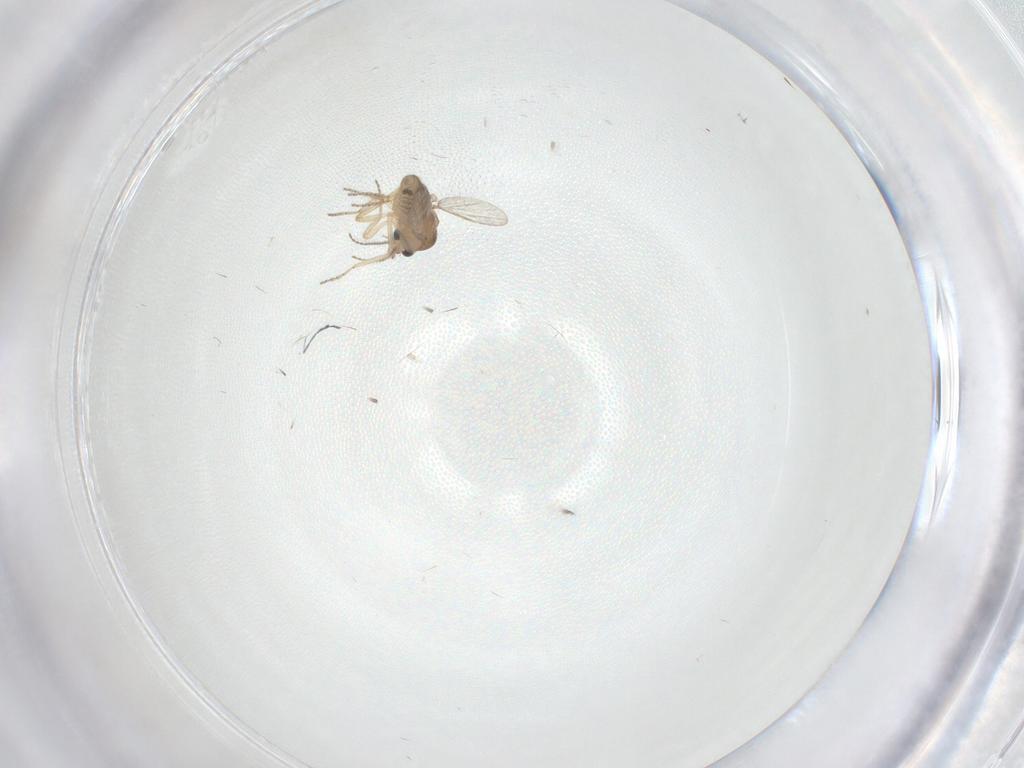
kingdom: Animalia
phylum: Arthropoda
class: Insecta
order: Diptera
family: Ceratopogonidae
